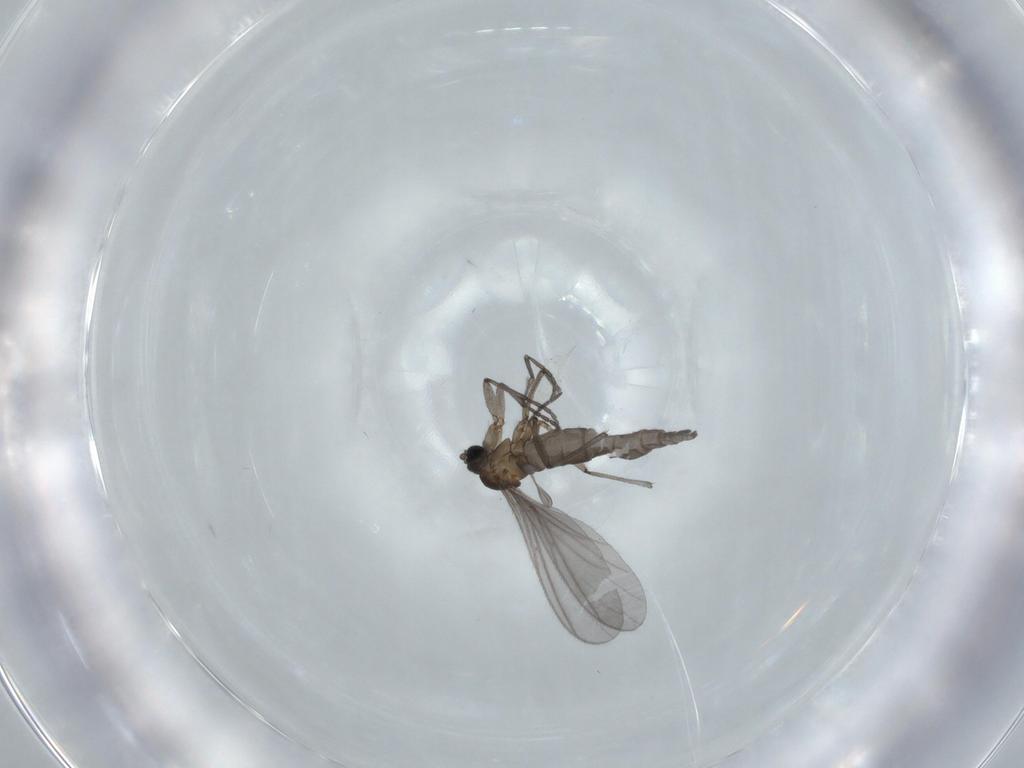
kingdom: Animalia
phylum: Arthropoda
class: Insecta
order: Diptera
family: Sciaridae
